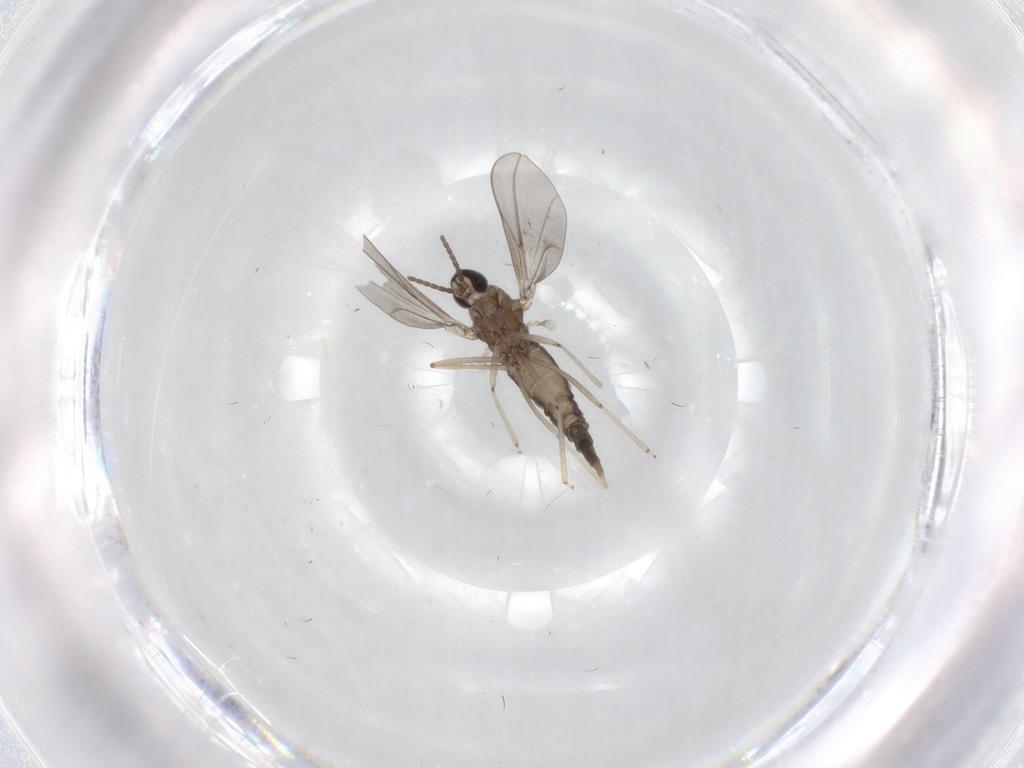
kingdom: Animalia
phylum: Arthropoda
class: Insecta
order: Diptera
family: Cecidomyiidae
